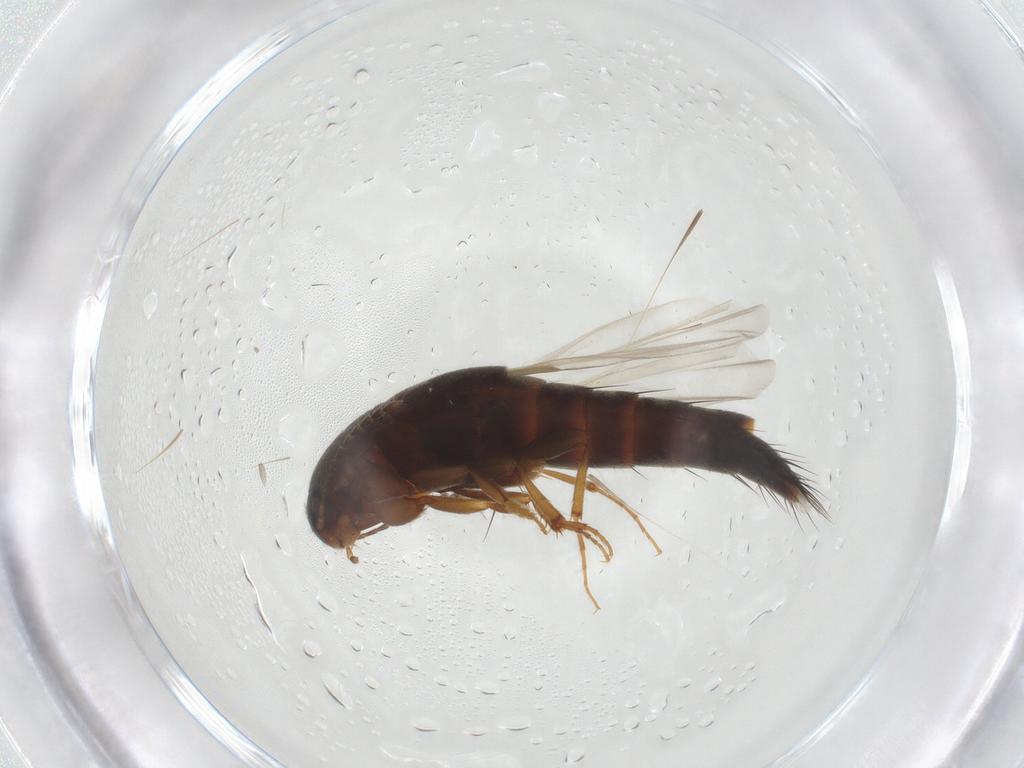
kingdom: Animalia
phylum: Arthropoda
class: Insecta
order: Coleoptera
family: Staphylinidae
